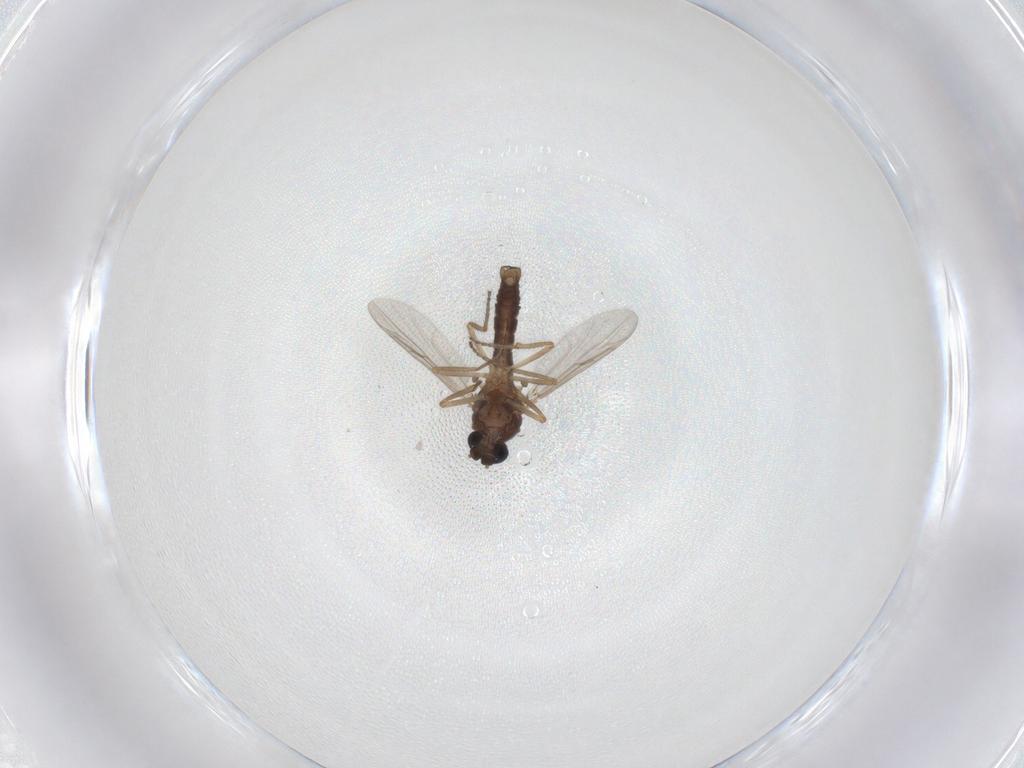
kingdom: Animalia
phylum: Arthropoda
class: Insecta
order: Diptera
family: Ceratopogonidae
